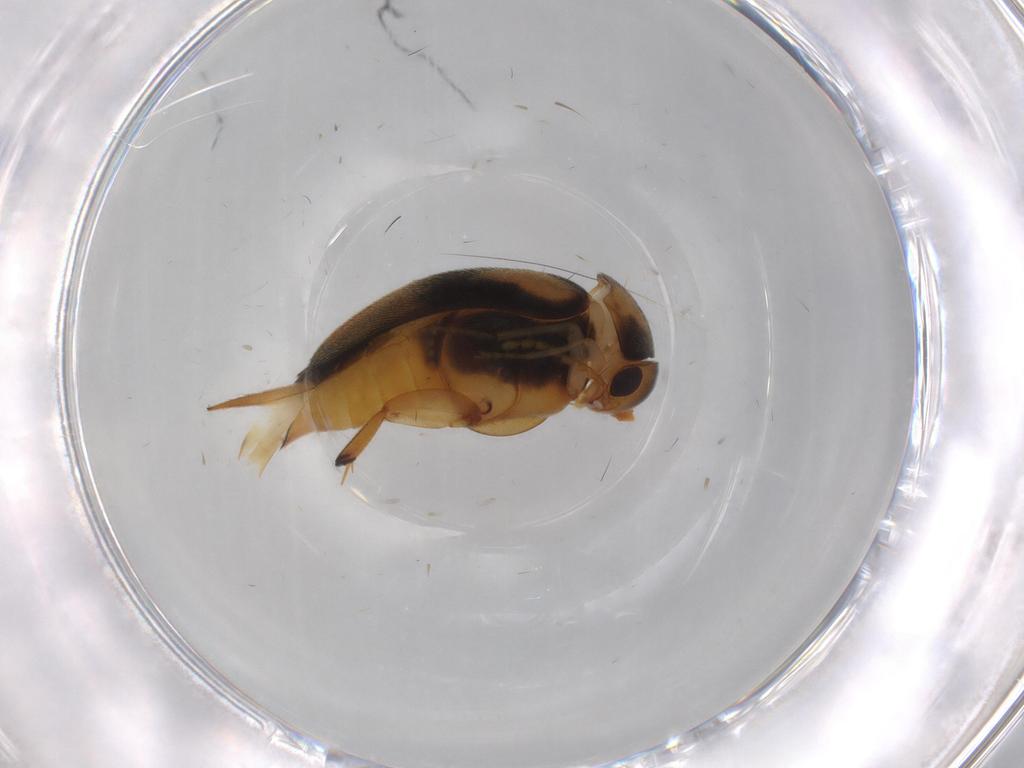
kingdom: Animalia
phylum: Arthropoda
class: Insecta
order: Coleoptera
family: Mordellidae
